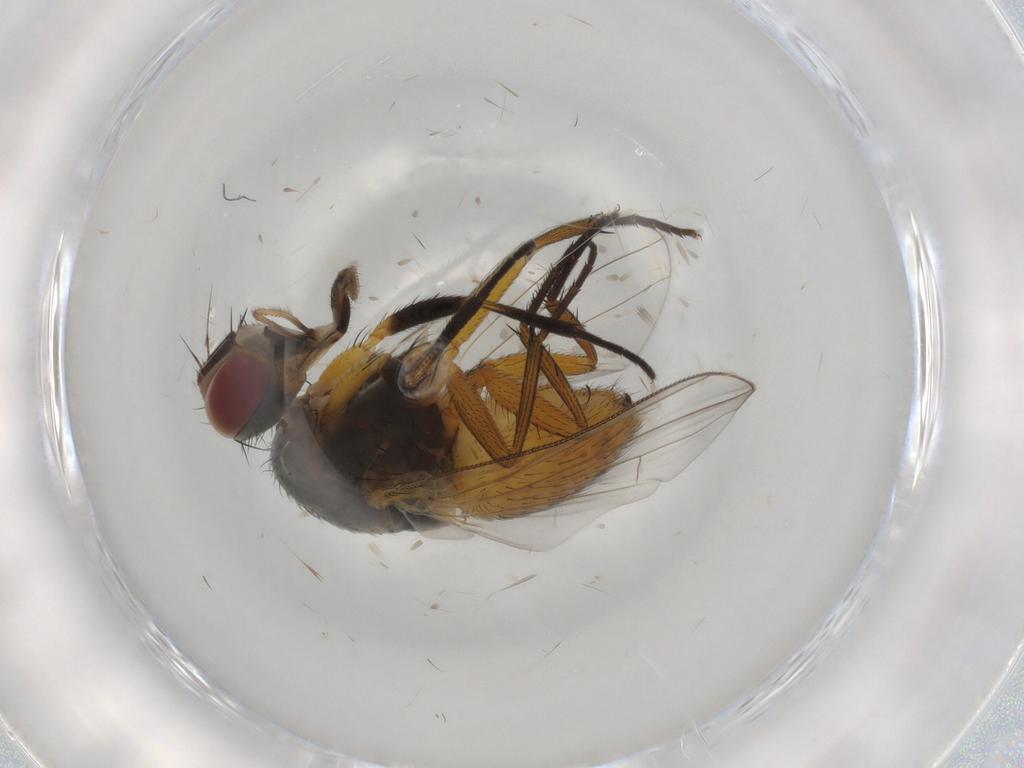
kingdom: Animalia
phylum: Arthropoda
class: Insecta
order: Diptera
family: Muscidae
